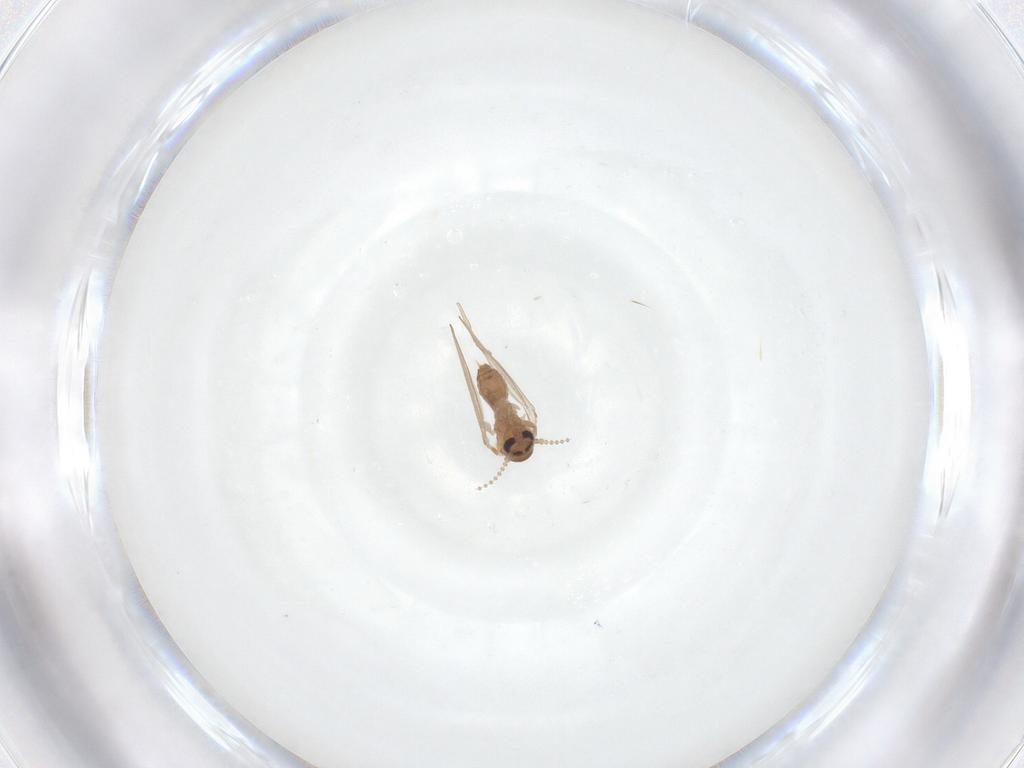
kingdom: Animalia
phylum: Arthropoda
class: Insecta
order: Diptera
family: Psychodidae
